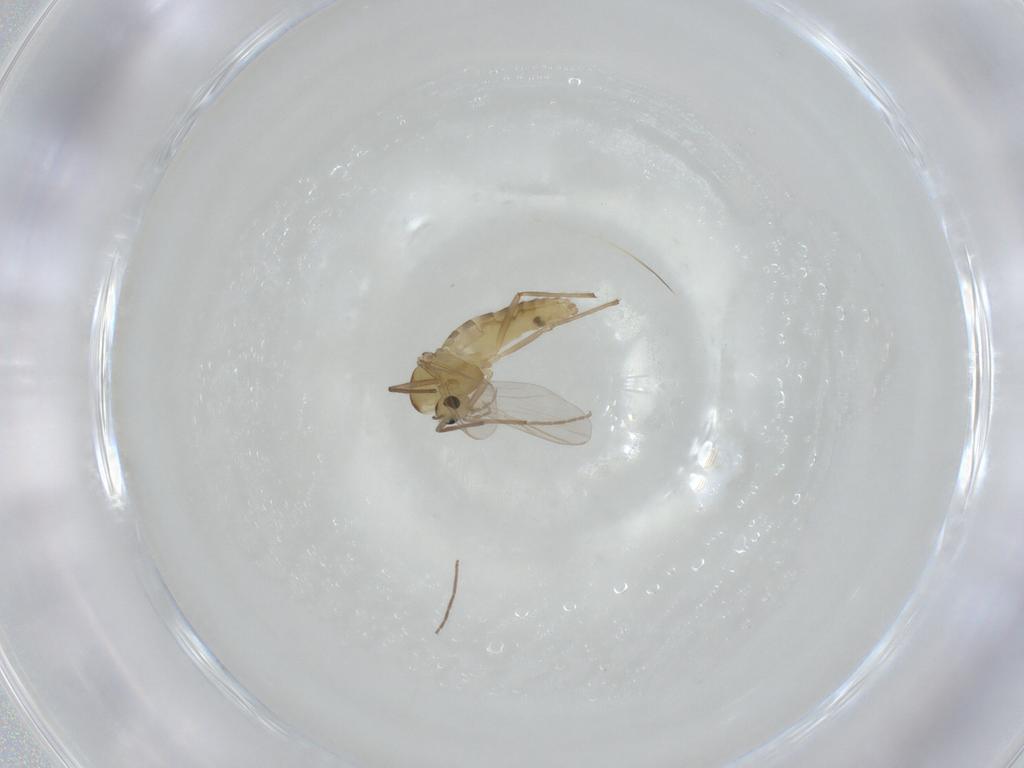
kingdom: Animalia
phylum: Arthropoda
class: Insecta
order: Diptera
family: Chironomidae
